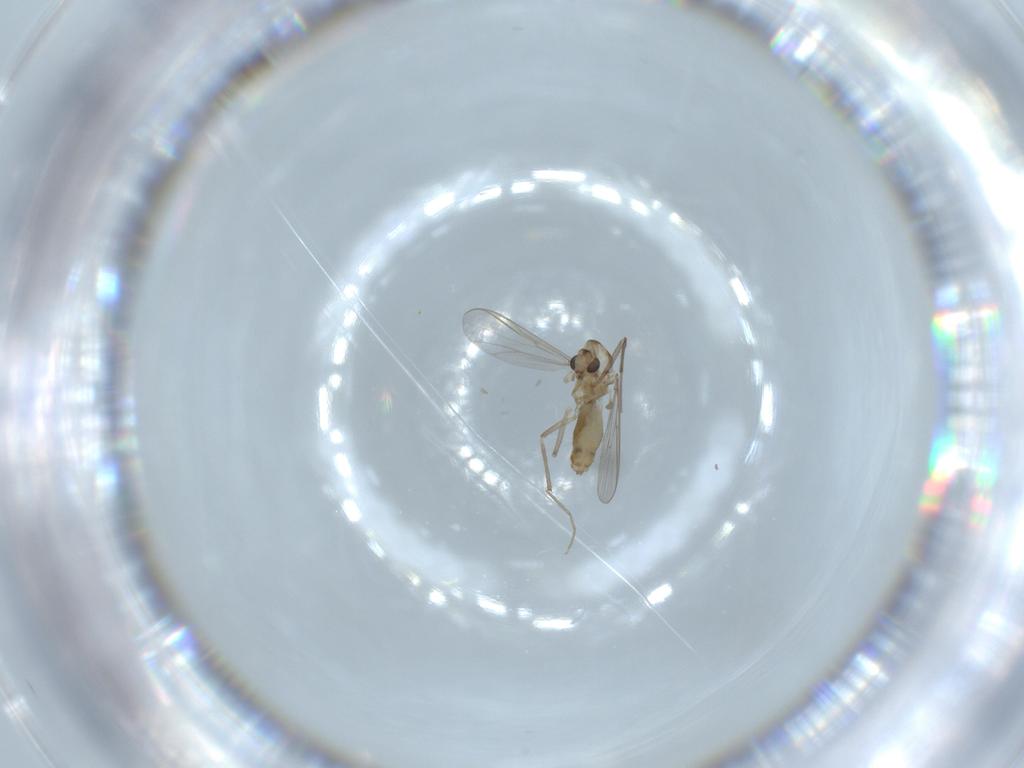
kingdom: Animalia
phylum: Arthropoda
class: Insecta
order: Diptera
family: Chironomidae
